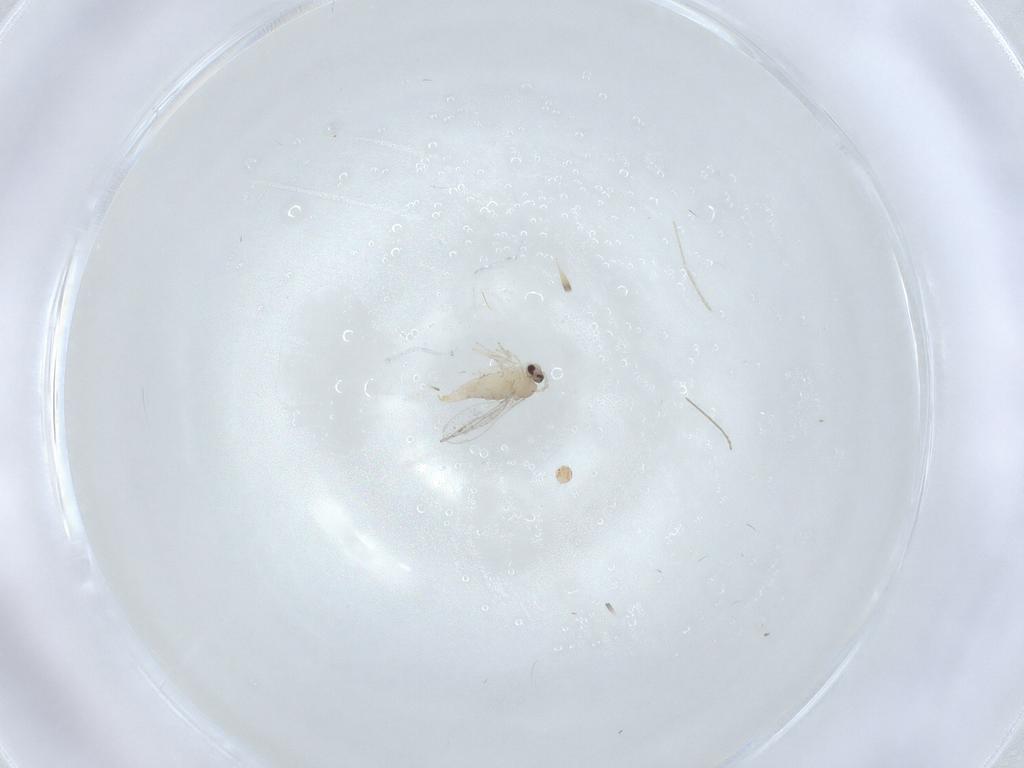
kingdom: Animalia
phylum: Arthropoda
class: Insecta
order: Diptera
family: Cecidomyiidae
